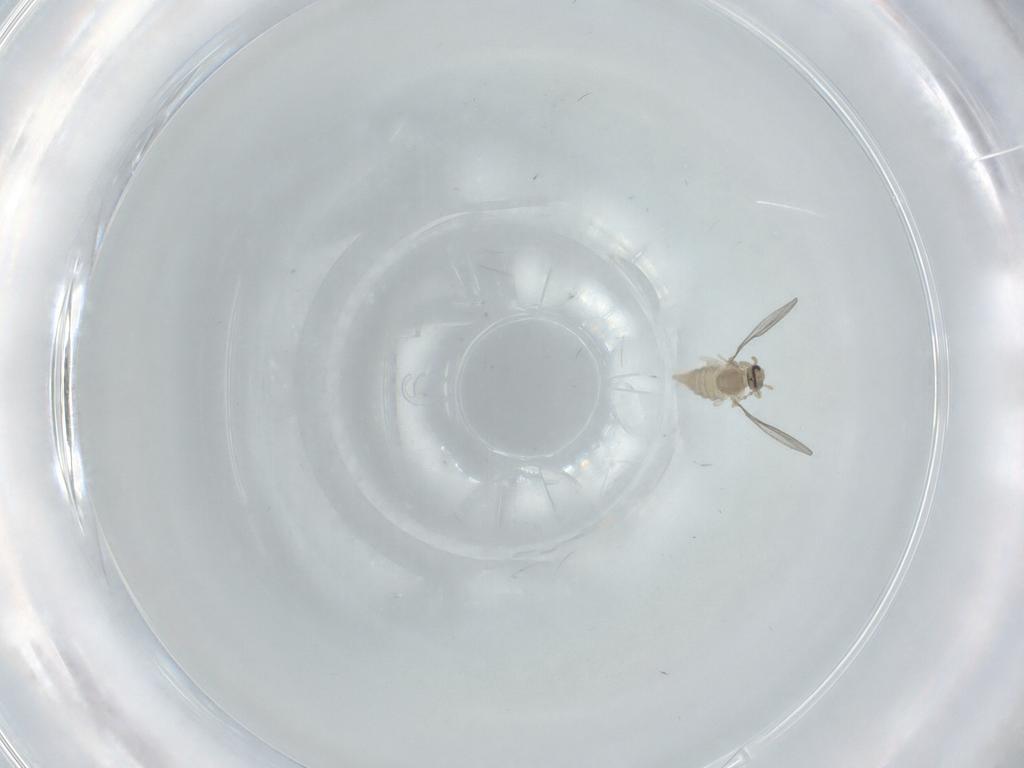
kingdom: Animalia
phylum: Arthropoda
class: Insecta
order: Diptera
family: Cecidomyiidae
